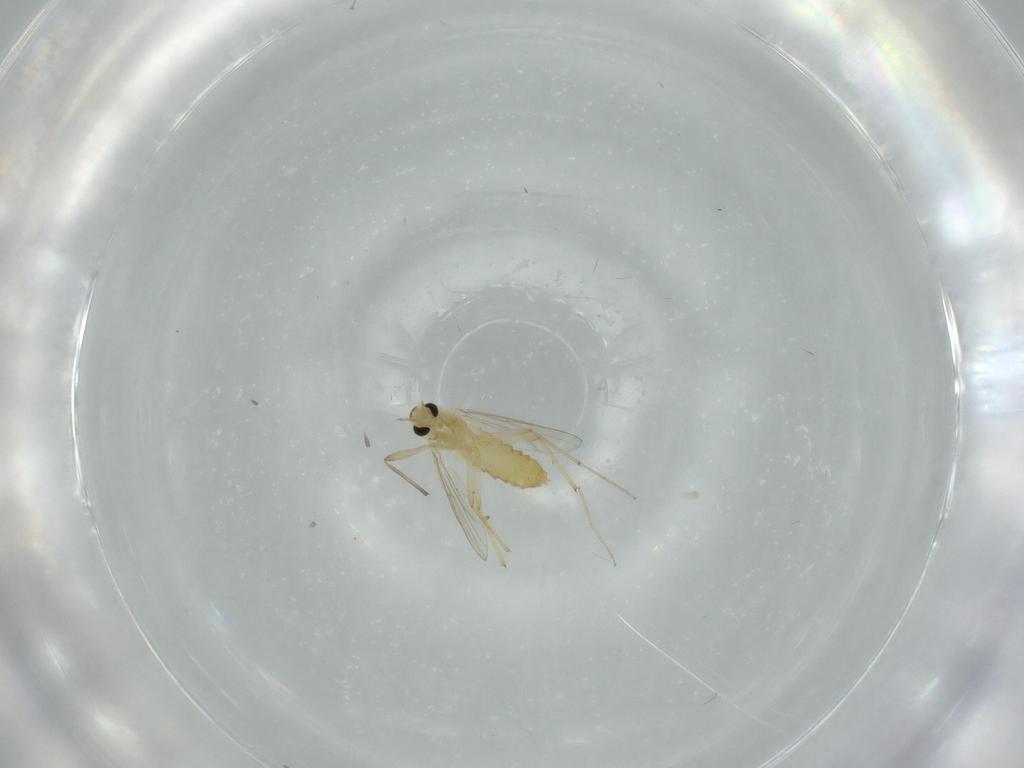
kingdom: Animalia
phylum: Arthropoda
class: Insecta
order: Diptera
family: Chironomidae
